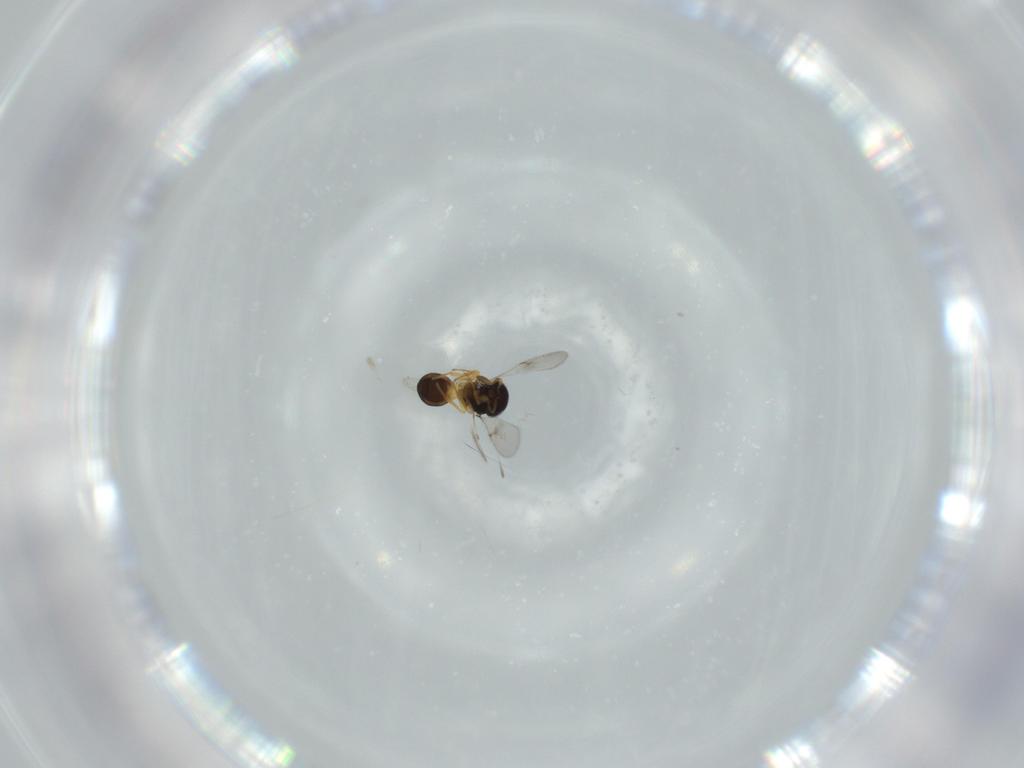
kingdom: Animalia
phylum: Arthropoda
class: Insecta
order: Hymenoptera
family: Scelionidae
